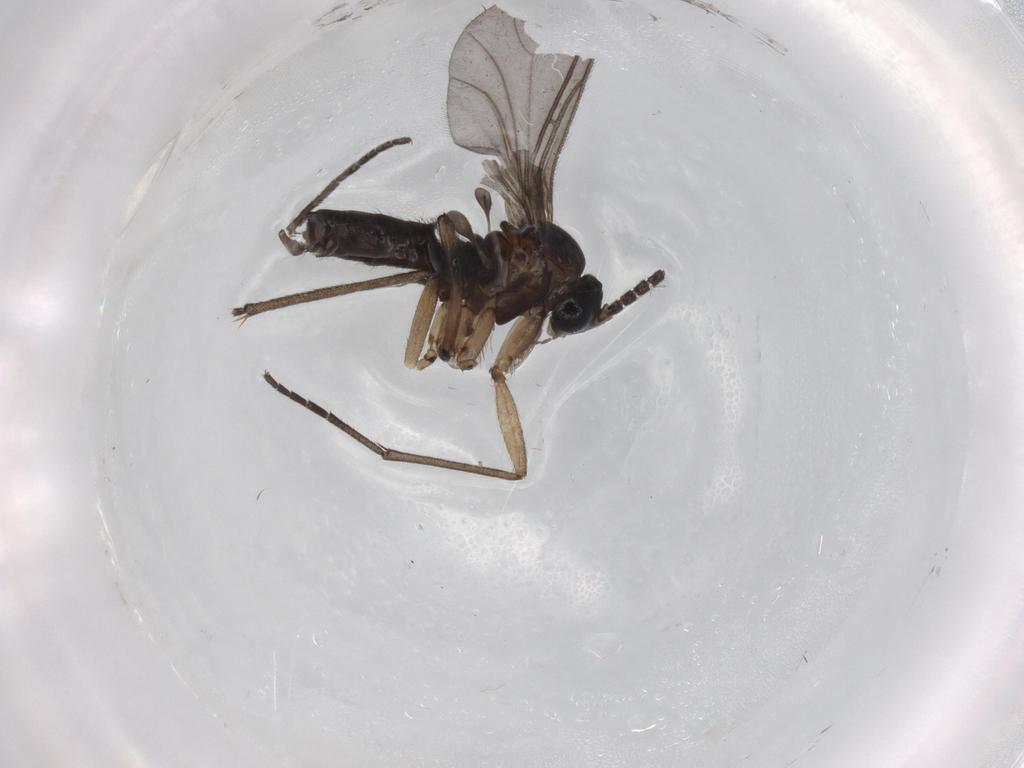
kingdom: Animalia
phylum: Arthropoda
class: Insecta
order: Diptera
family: Sciaridae
